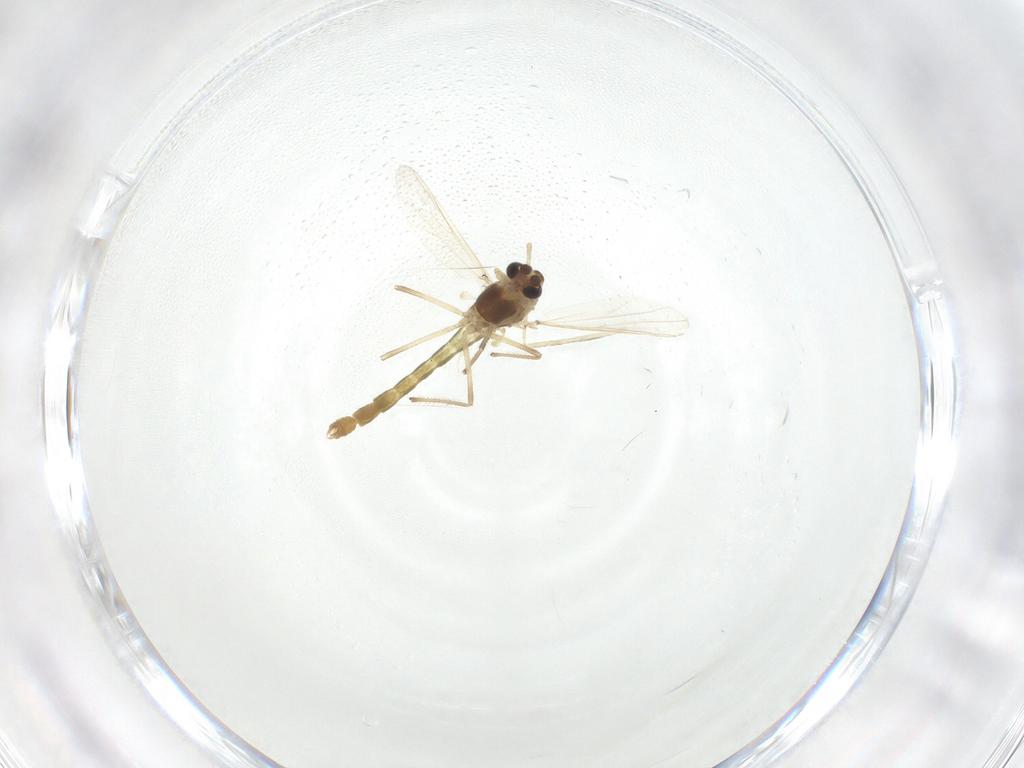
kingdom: Animalia
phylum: Arthropoda
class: Insecta
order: Diptera
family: Chironomidae
